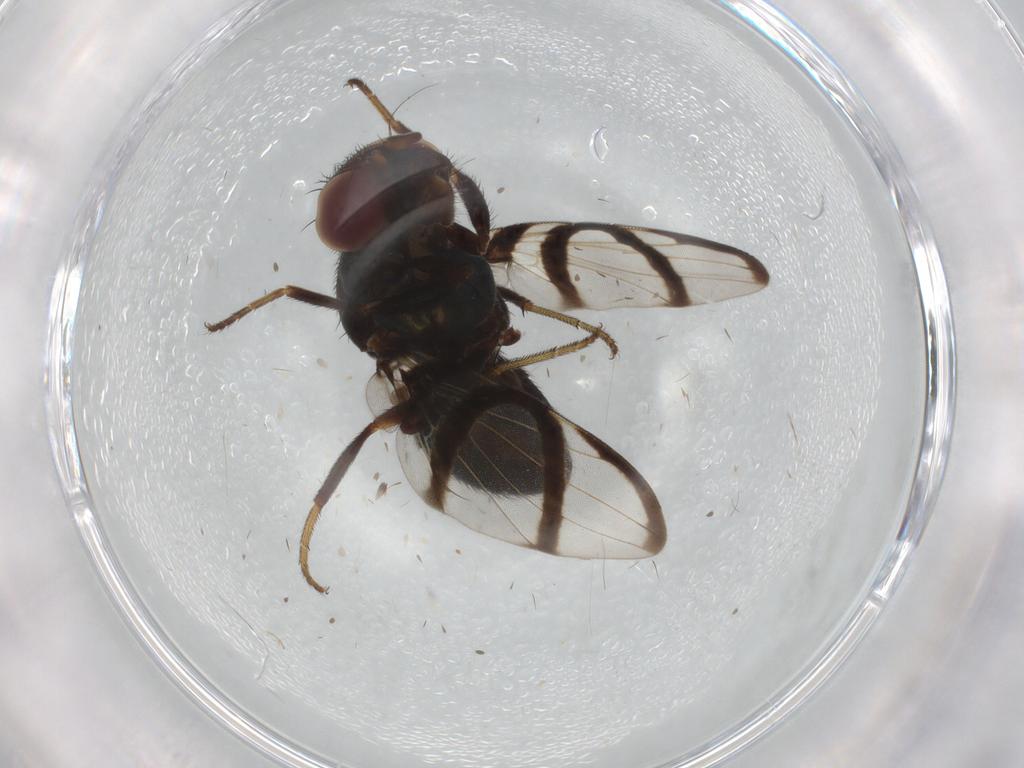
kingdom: Animalia
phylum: Arthropoda
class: Insecta
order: Diptera
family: Ulidiidae
